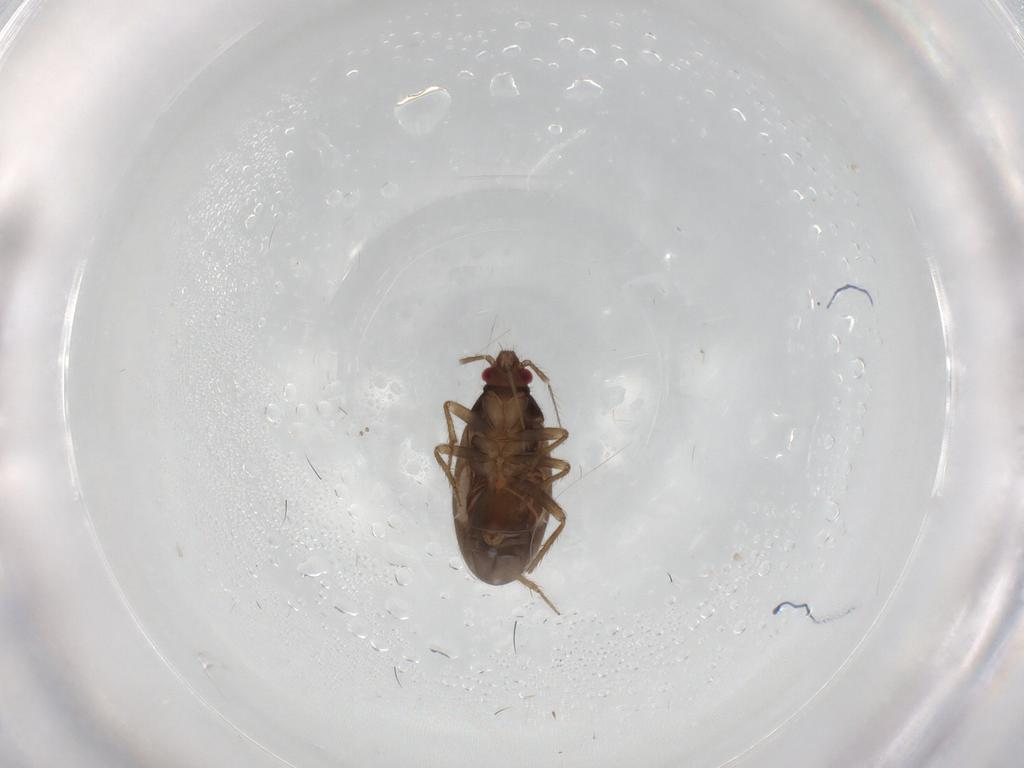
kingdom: Animalia
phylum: Arthropoda
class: Insecta
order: Hemiptera
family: Ceratocombidae
